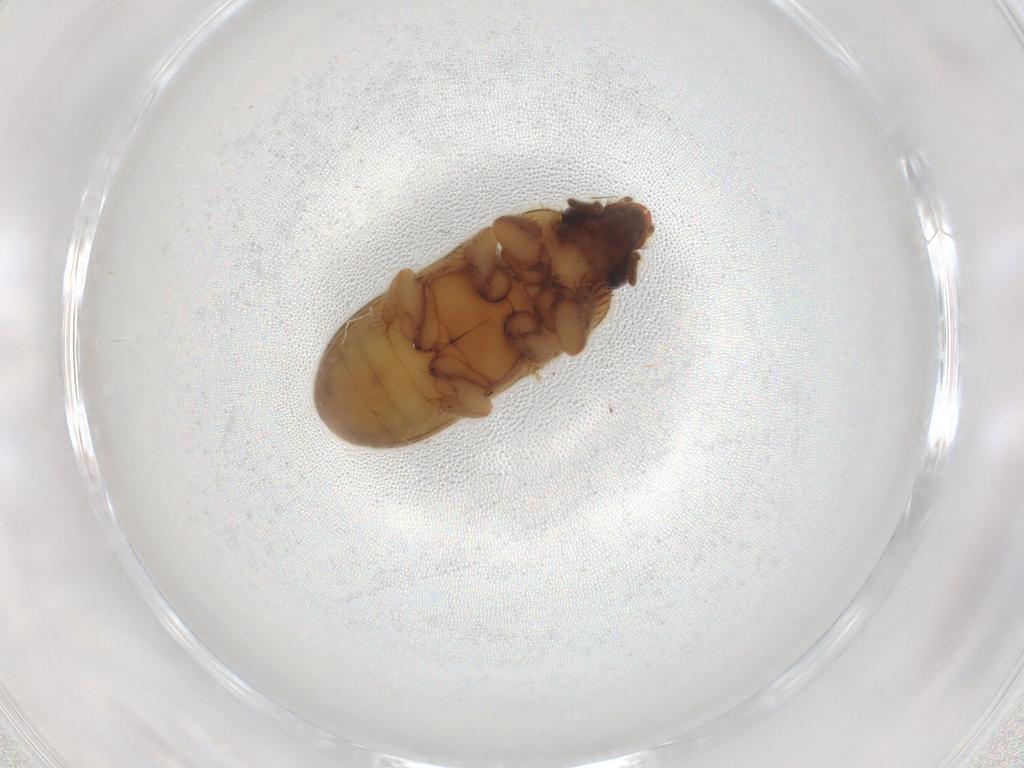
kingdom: Animalia
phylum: Arthropoda
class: Insecta
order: Coleoptera
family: Heteroceridae
